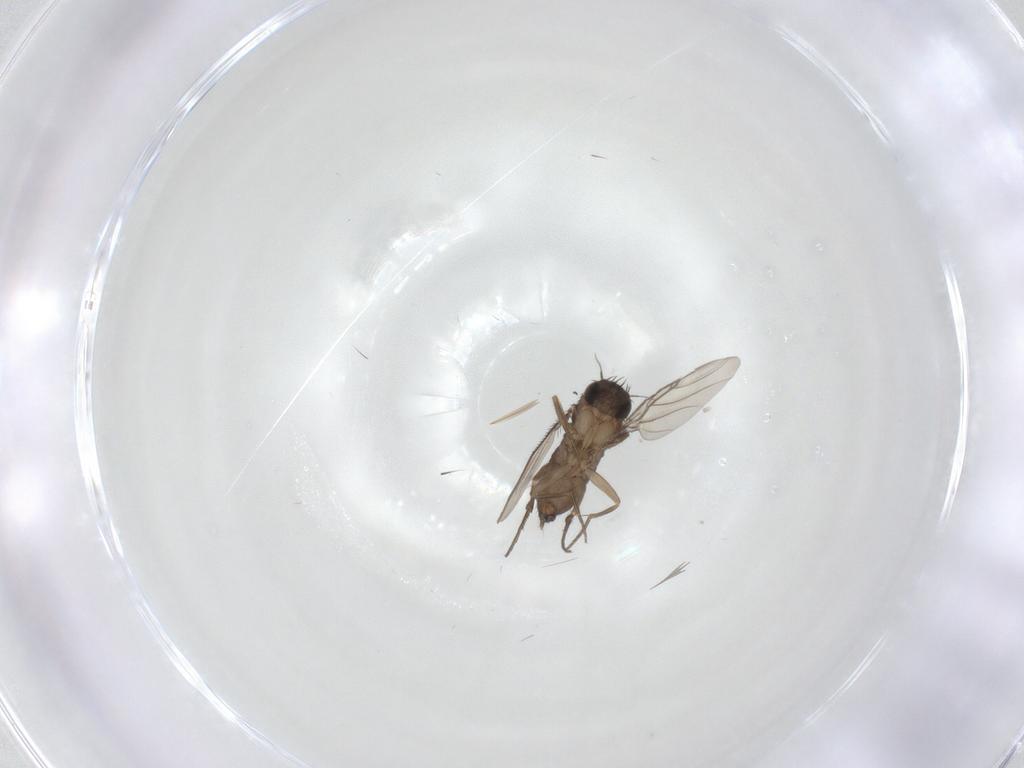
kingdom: Animalia
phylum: Arthropoda
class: Insecta
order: Diptera
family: Phoridae
